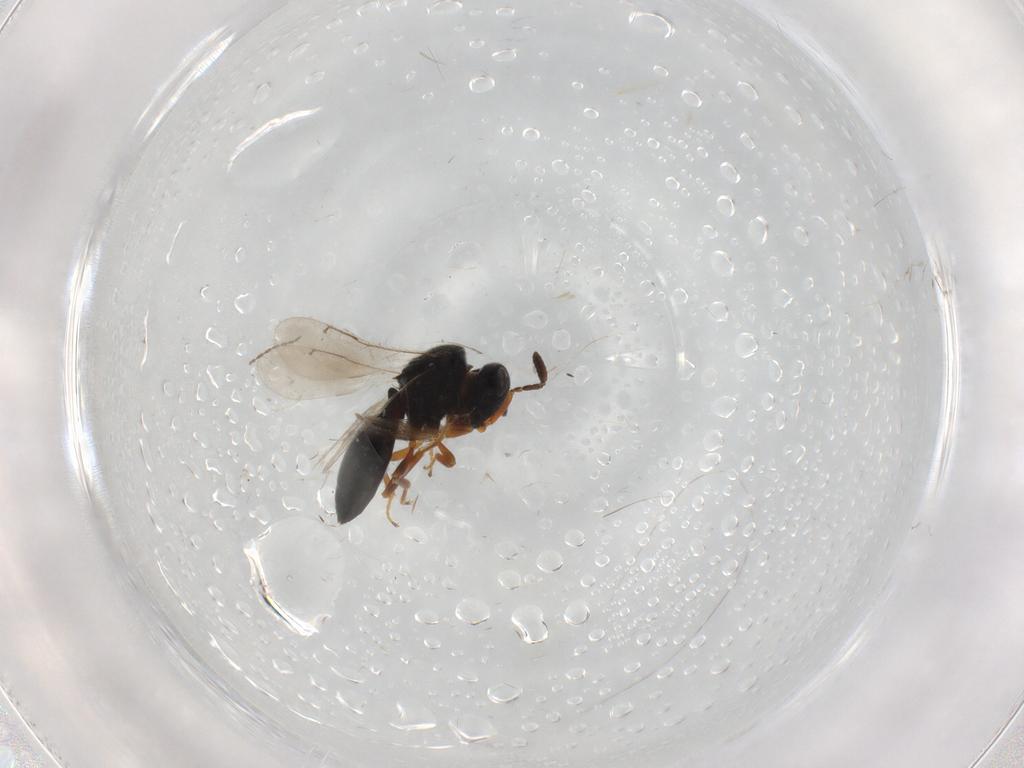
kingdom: Animalia
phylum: Arthropoda
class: Insecta
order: Hymenoptera
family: Scelionidae
